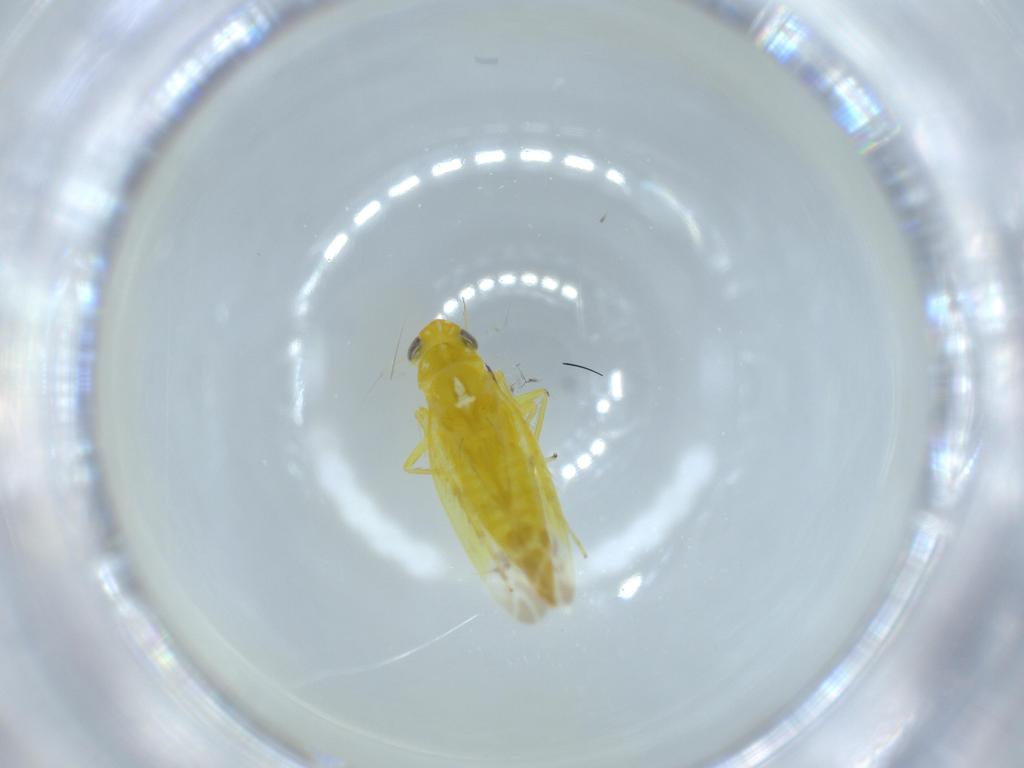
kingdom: Animalia
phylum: Arthropoda
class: Insecta
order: Hemiptera
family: Cicadellidae
